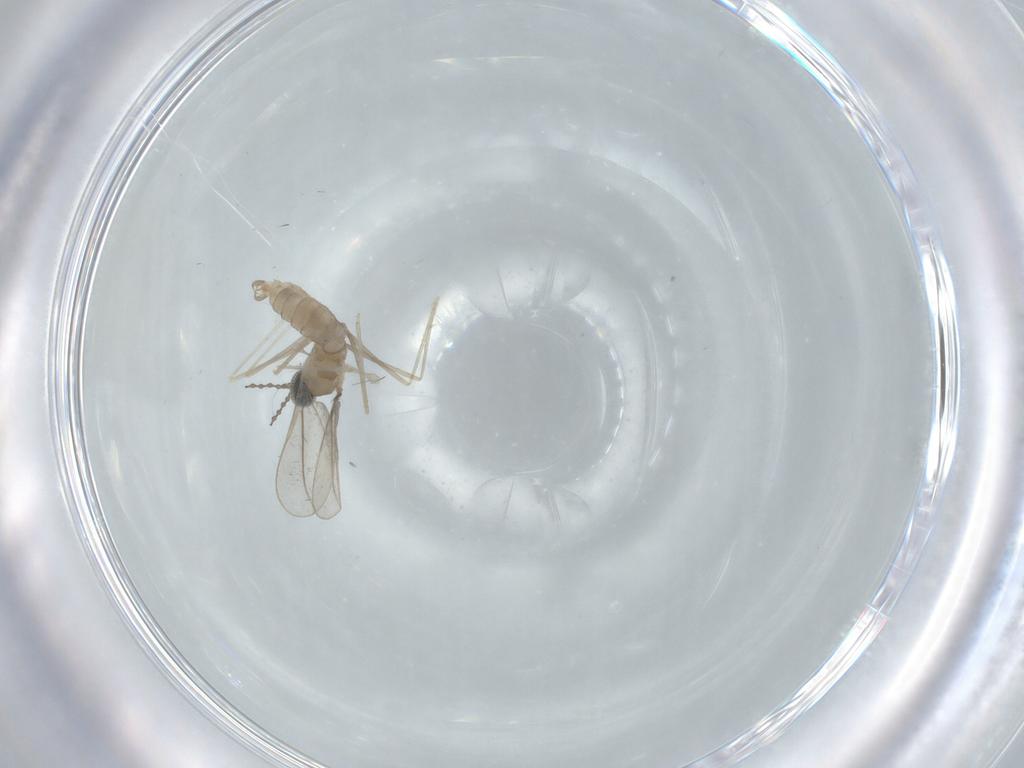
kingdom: Animalia
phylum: Arthropoda
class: Insecta
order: Diptera
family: Chironomidae
